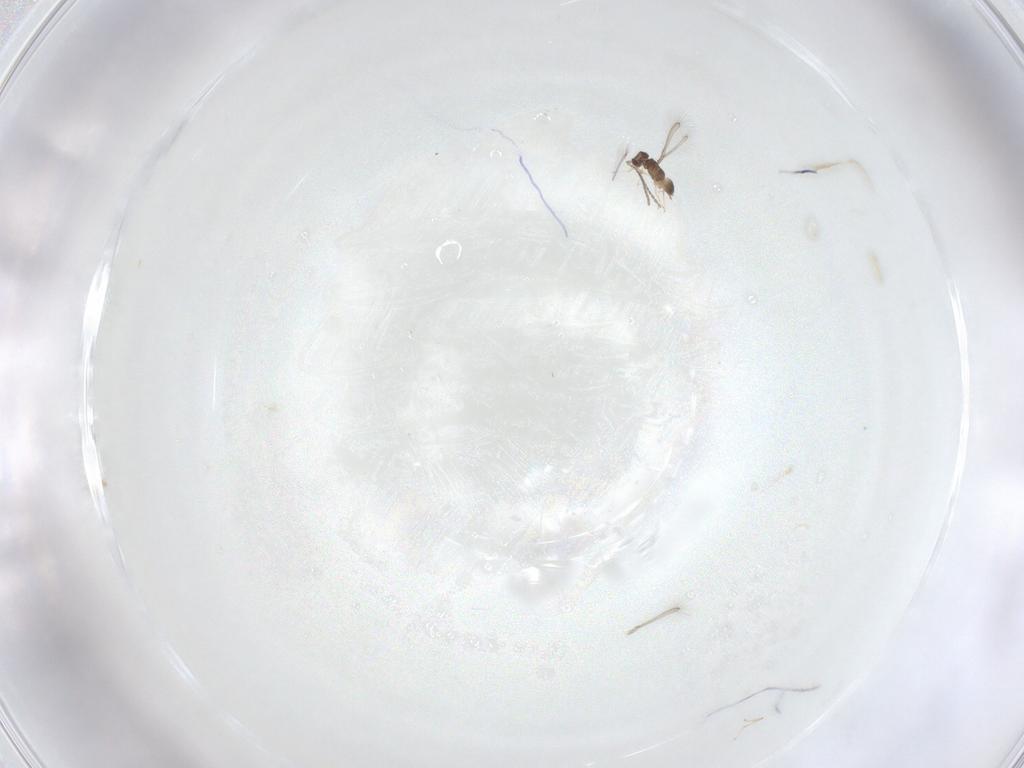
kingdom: Animalia
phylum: Arthropoda
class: Insecta
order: Hymenoptera
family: Mymaridae
